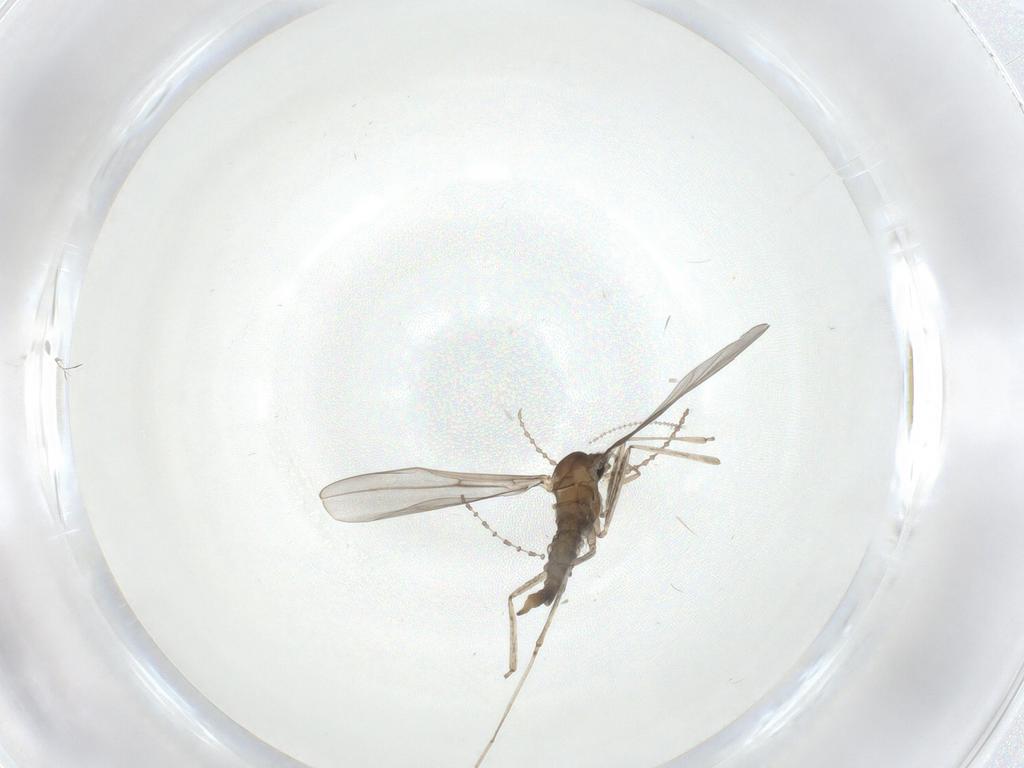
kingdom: Animalia
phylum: Arthropoda
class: Insecta
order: Diptera
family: Cecidomyiidae
